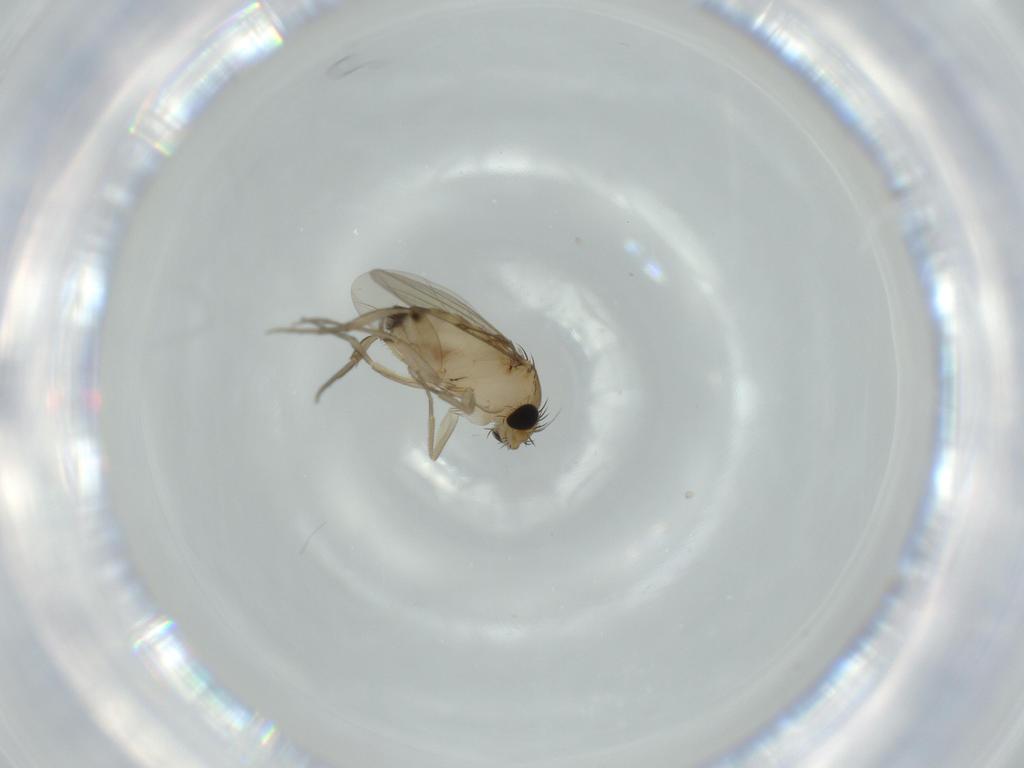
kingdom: Animalia
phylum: Arthropoda
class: Insecta
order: Diptera
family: Phoridae
